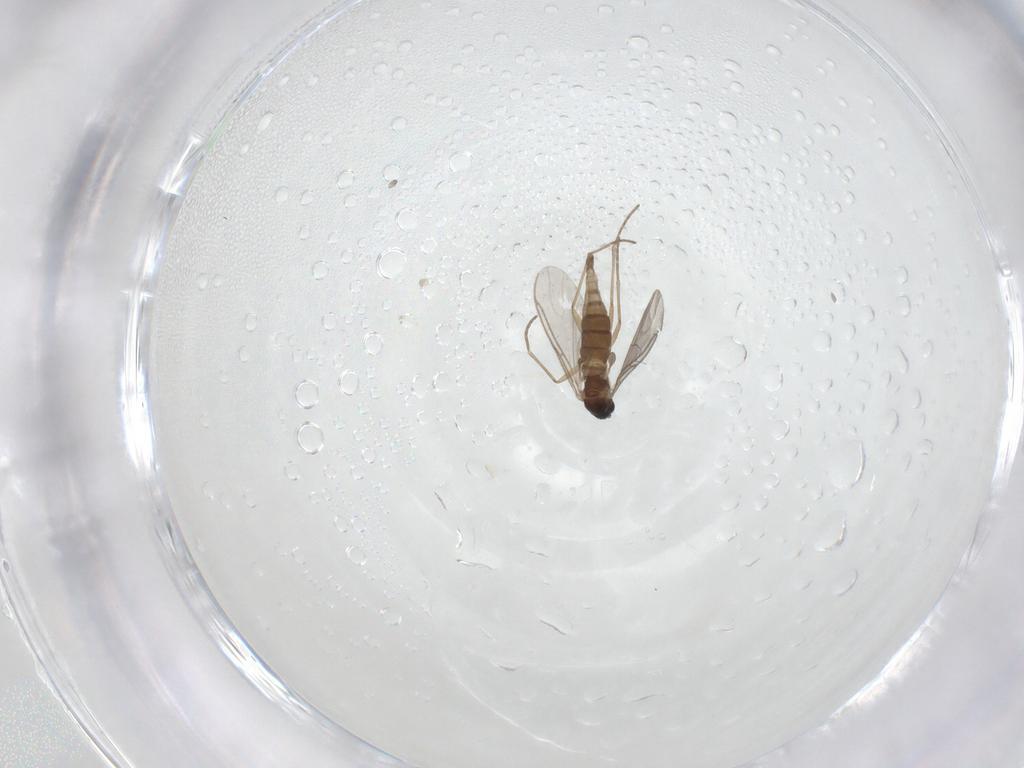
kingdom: Animalia
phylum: Arthropoda
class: Insecta
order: Diptera
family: Sciaridae
